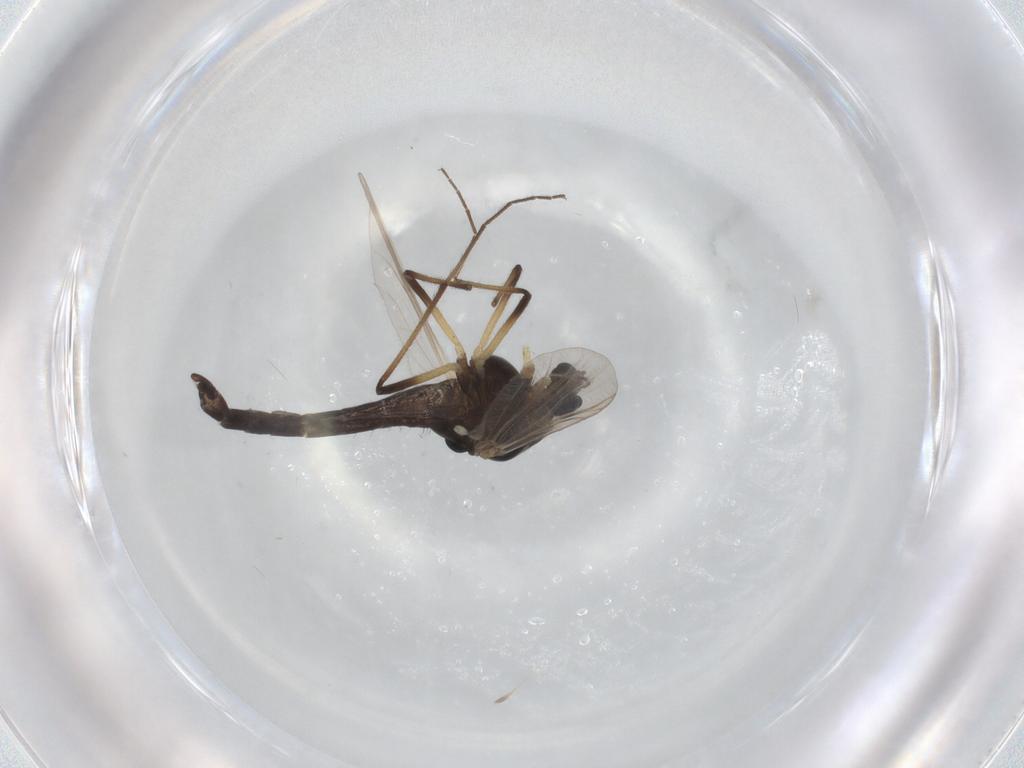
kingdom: Animalia
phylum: Arthropoda
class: Insecta
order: Diptera
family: Chironomidae
